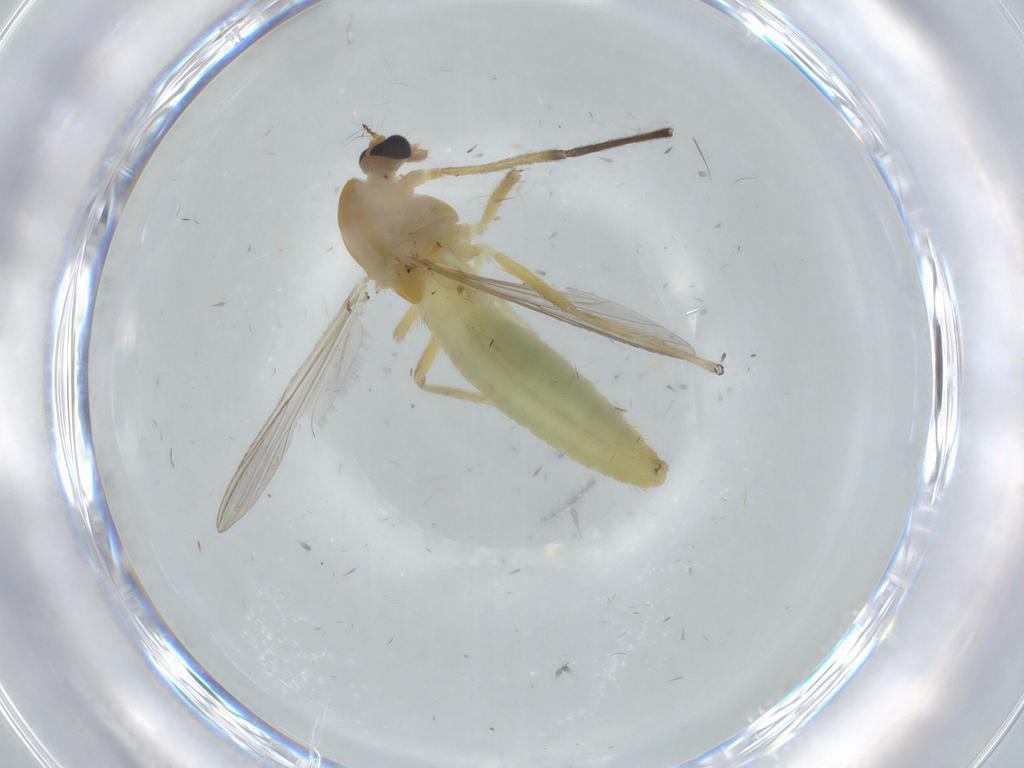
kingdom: Animalia
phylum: Arthropoda
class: Insecta
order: Diptera
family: Chironomidae
